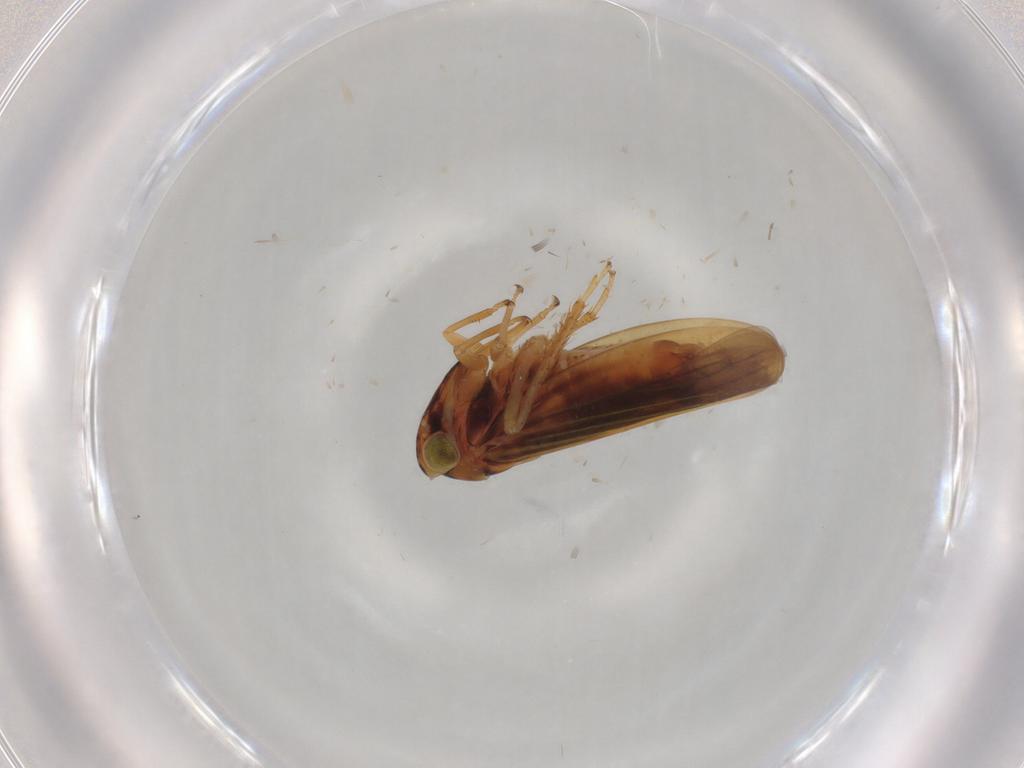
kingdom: Animalia
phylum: Arthropoda
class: Insecta
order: Hemiptera
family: Cicadellidae
